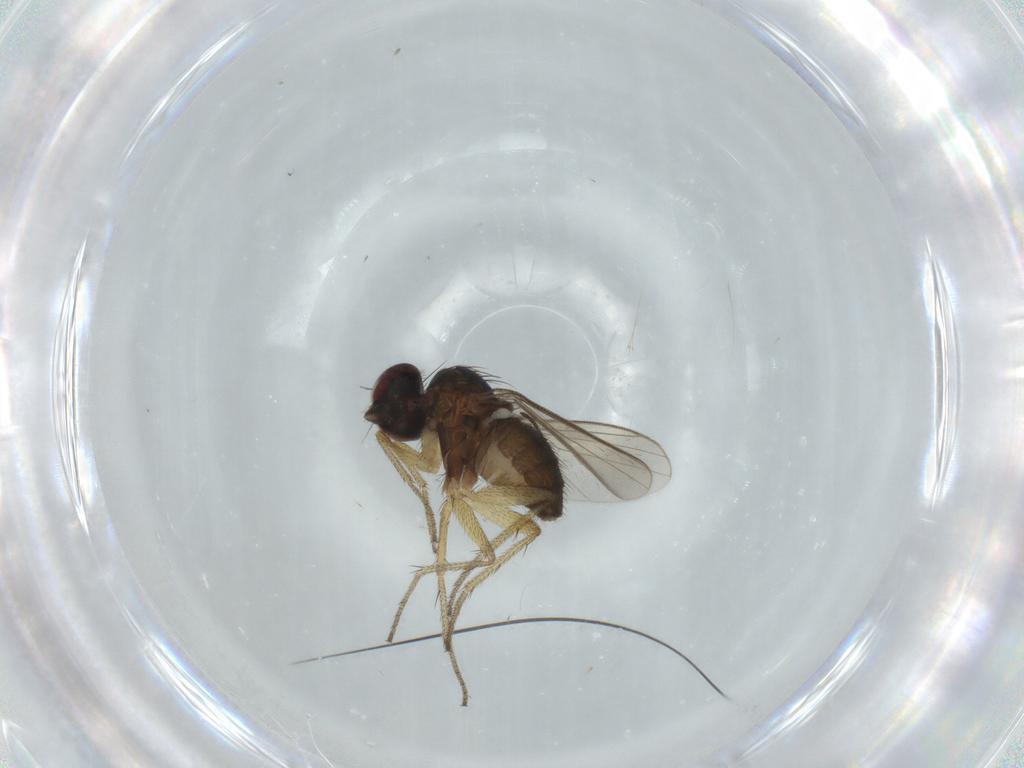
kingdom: Animalia
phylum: Arthropoda
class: Insecta
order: Diptera
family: Sciaridae
